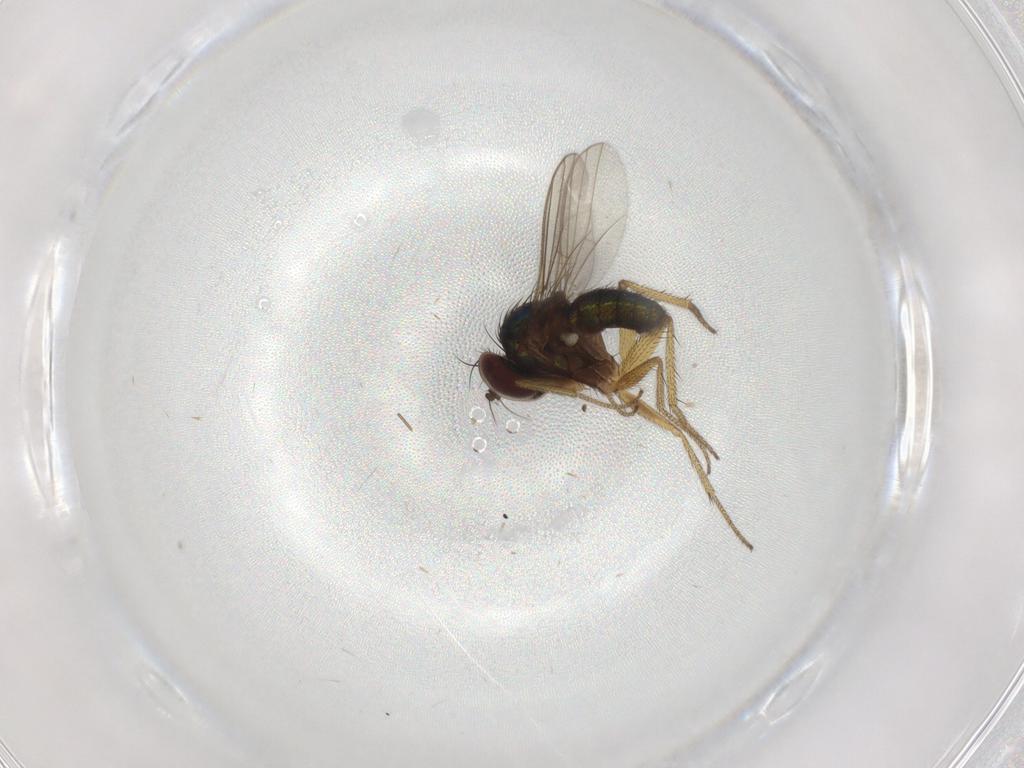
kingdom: Animalia
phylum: Arthropoda
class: Insecta
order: Diptera
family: Dolichopodidae
